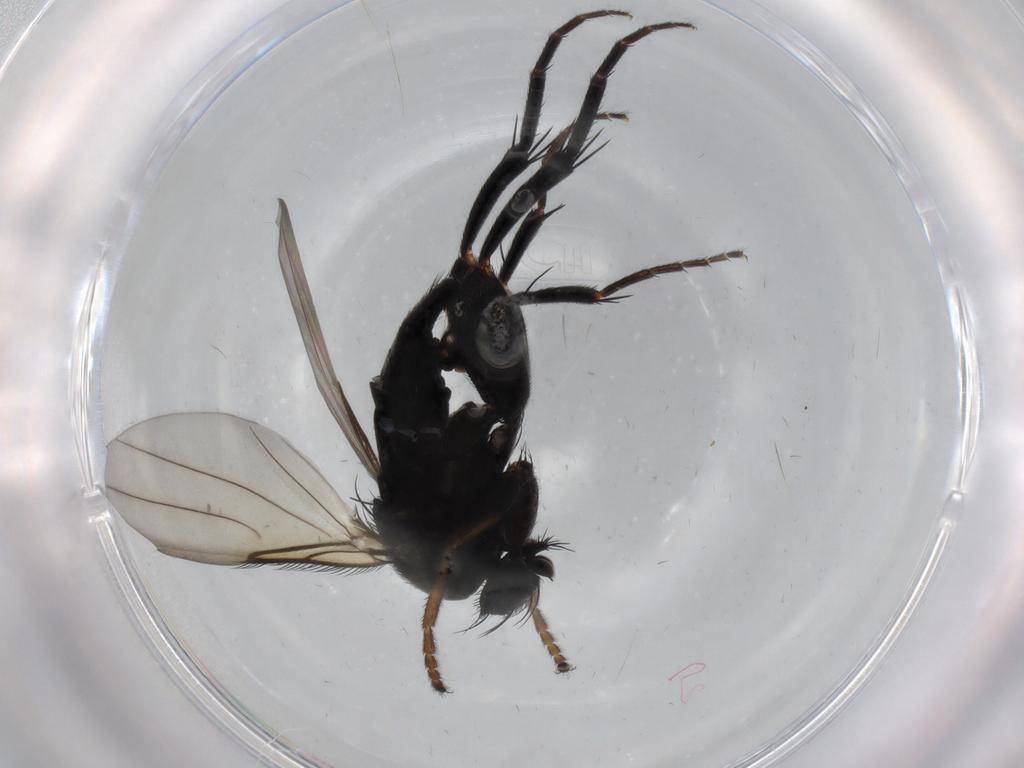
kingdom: Animalia
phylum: Arthropoda
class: Insecta
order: Diptera
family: Phoridae
